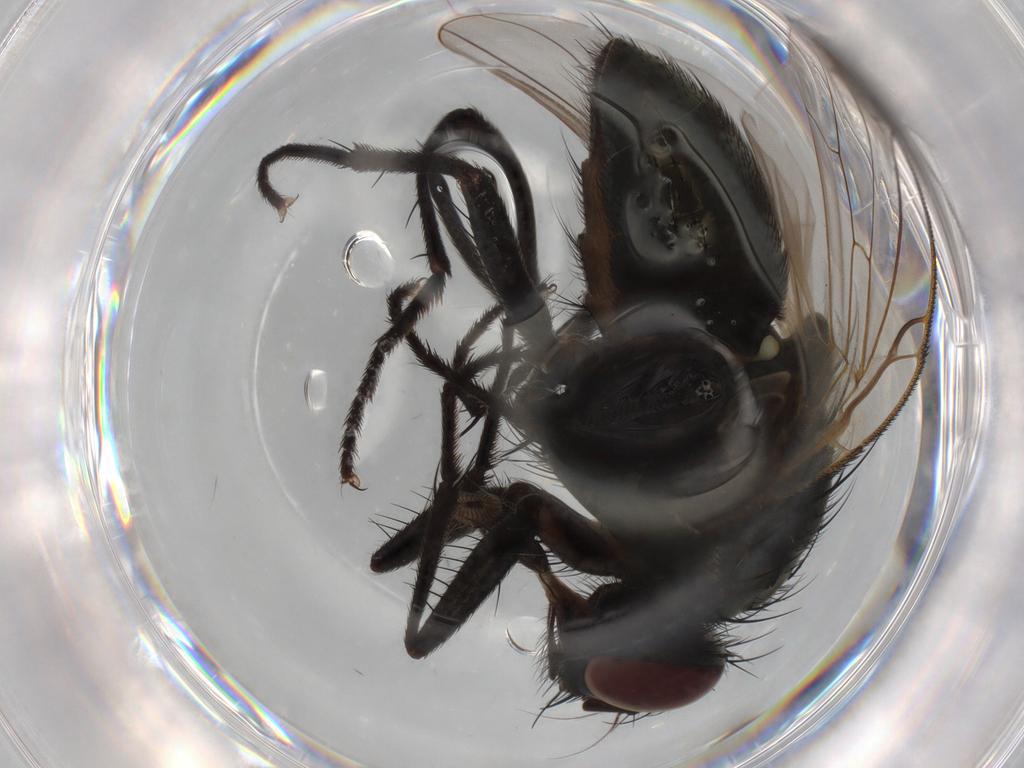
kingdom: Animalia
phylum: Arthropoda
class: Insecta
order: Diptera
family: Muscidae
